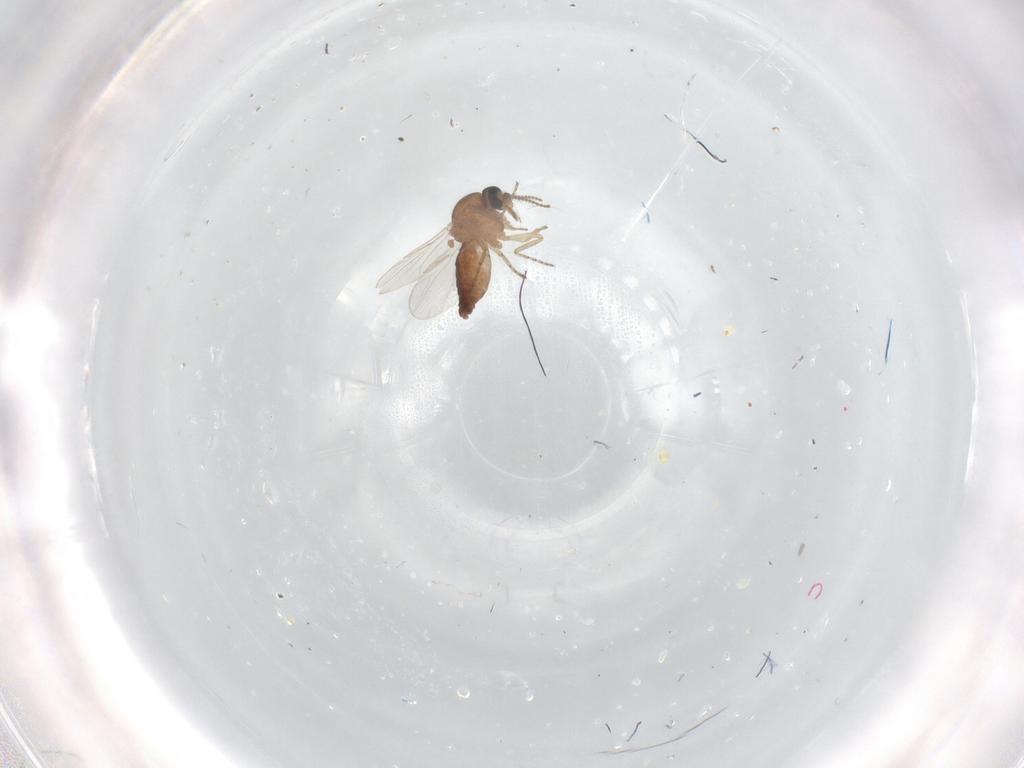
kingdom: Animalia
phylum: Arthropoda
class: Insecta
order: Diptera
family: Ceratopogonidae
